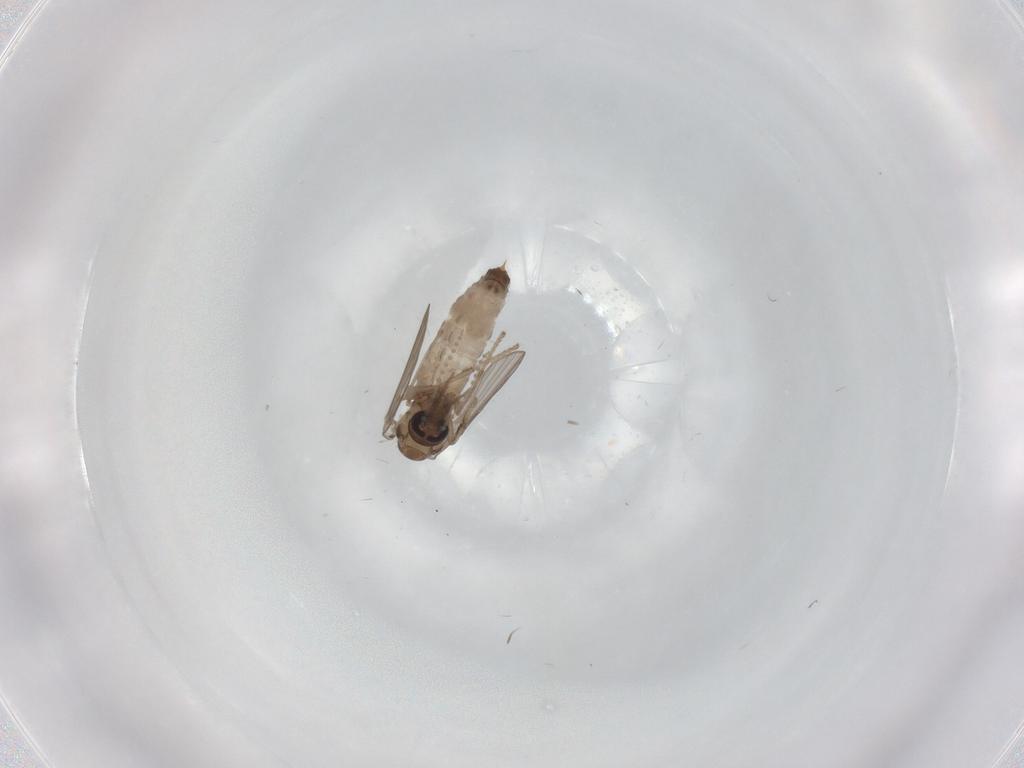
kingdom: Animalia
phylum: Arthropoda
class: Insecta
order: Diptera
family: Psychodidae
